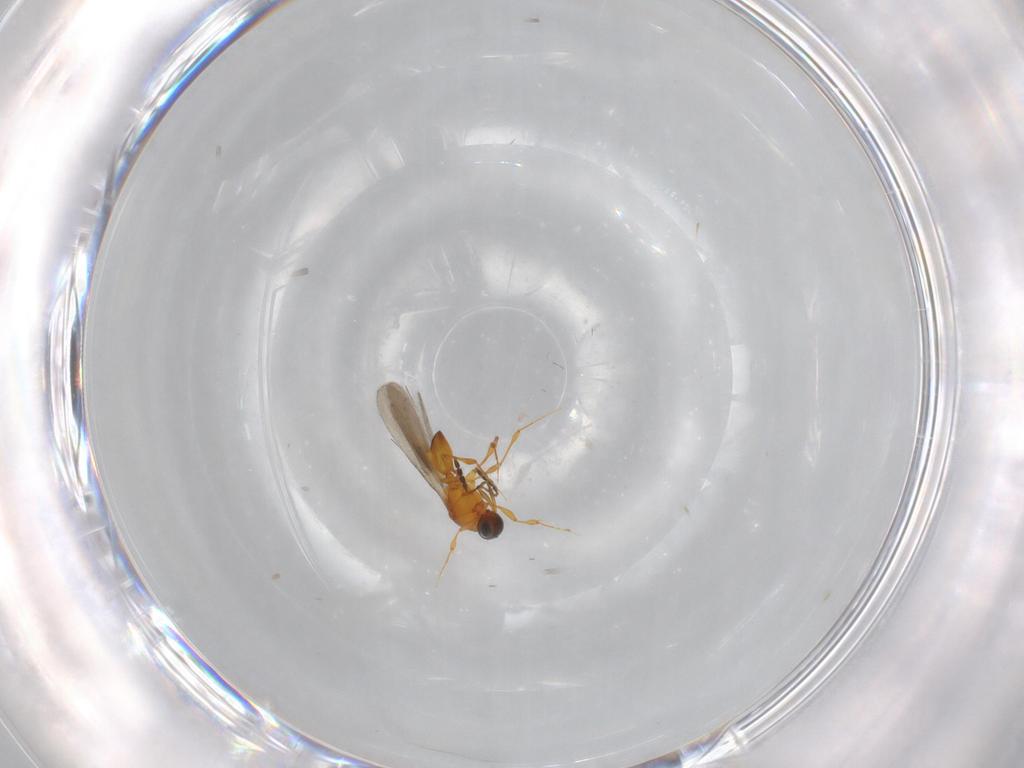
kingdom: Animalia
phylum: Arthropoda
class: Insecta
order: Hymenoptera
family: Platygastridae
